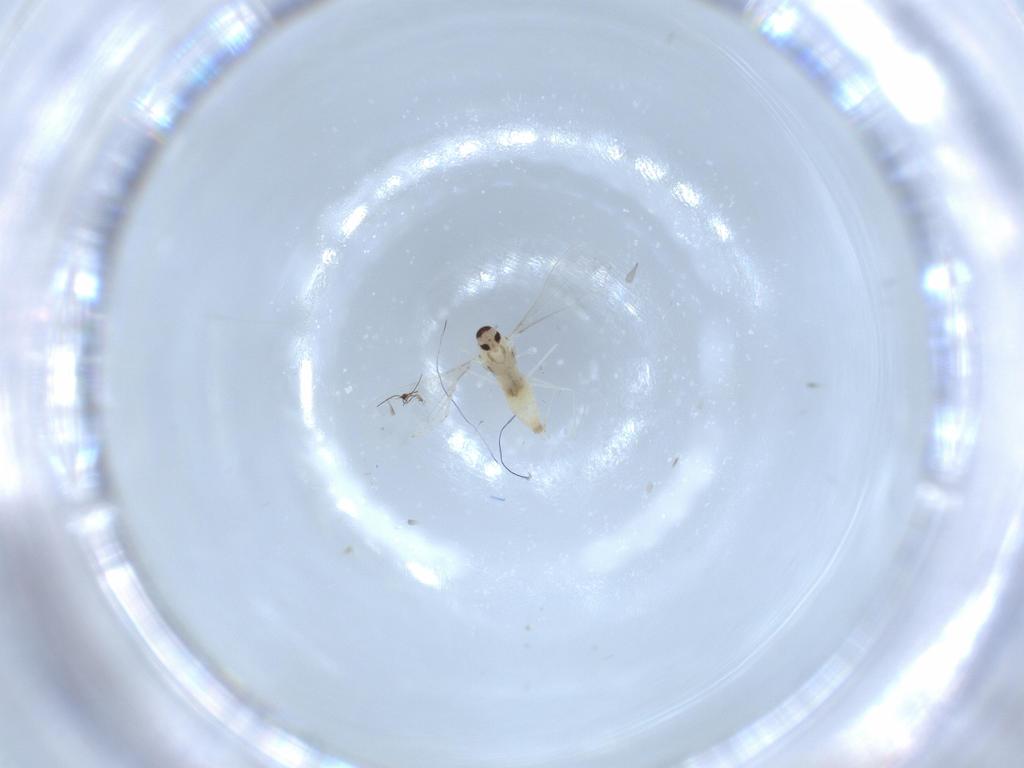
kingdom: Animalia
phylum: Arthropoda
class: Insecta
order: Diptera
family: Cecidomyiidae
